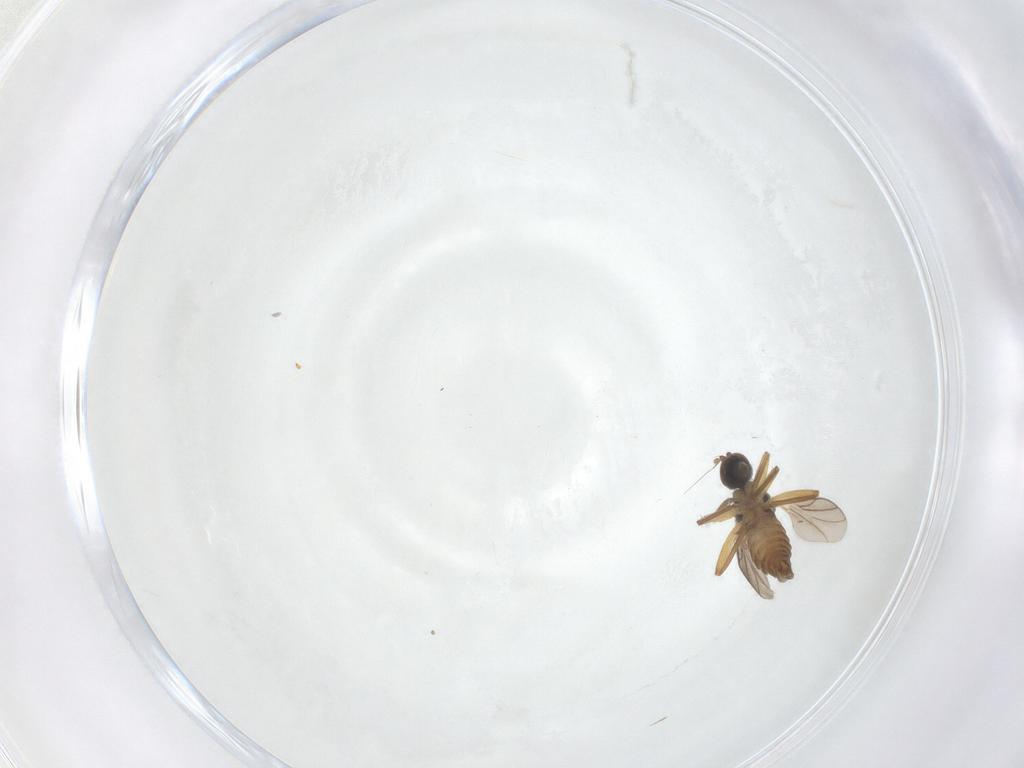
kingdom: Animalia
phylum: Arthropoda
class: Insecta
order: Diptera
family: Hybotidae
